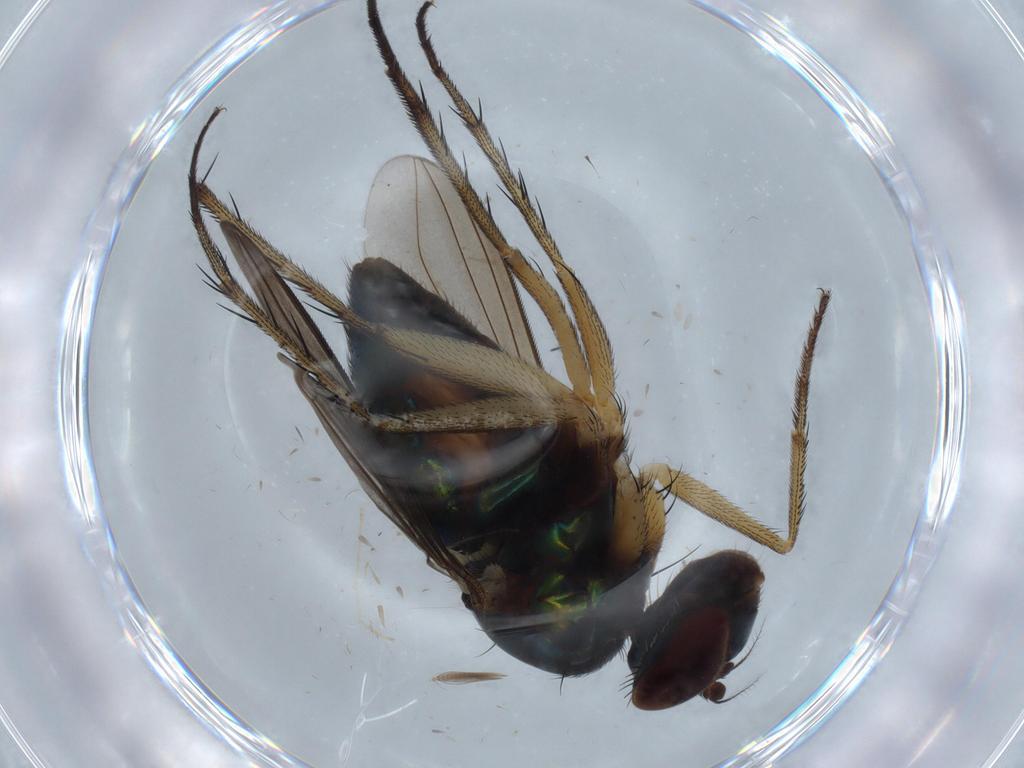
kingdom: Animalia
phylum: Arthropoda
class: Insecta
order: Diptera
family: Dolichopodidae
